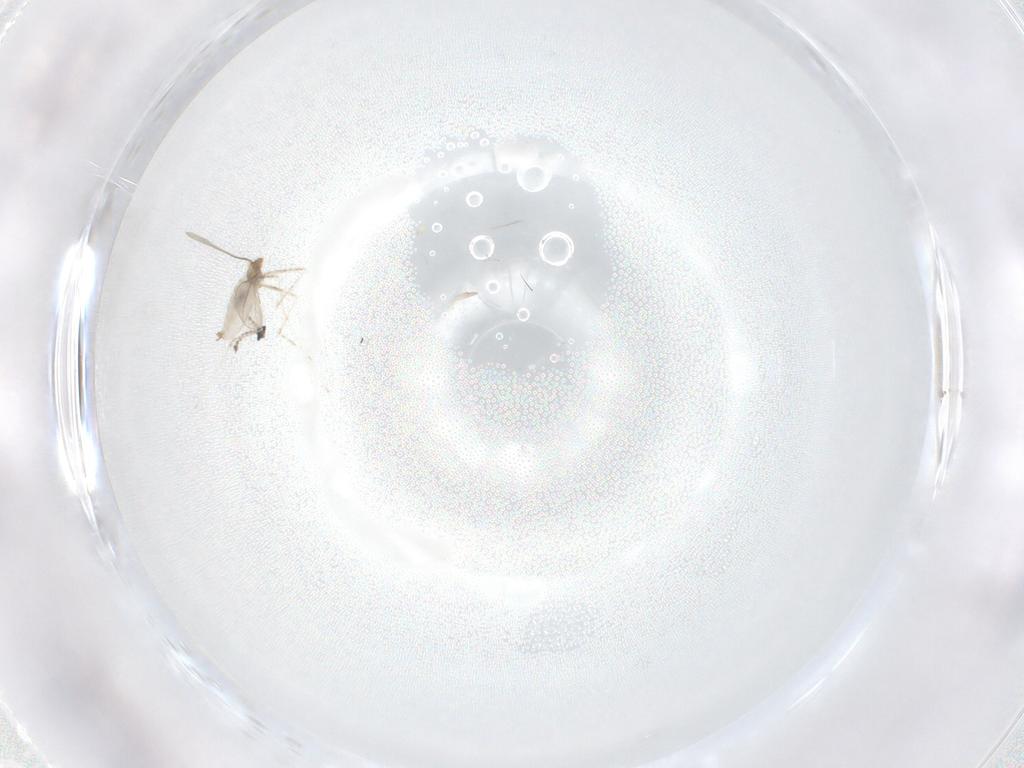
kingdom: Animalia
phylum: Arthropoda
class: Insecta
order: Diptera
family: Cecidomyiidae
